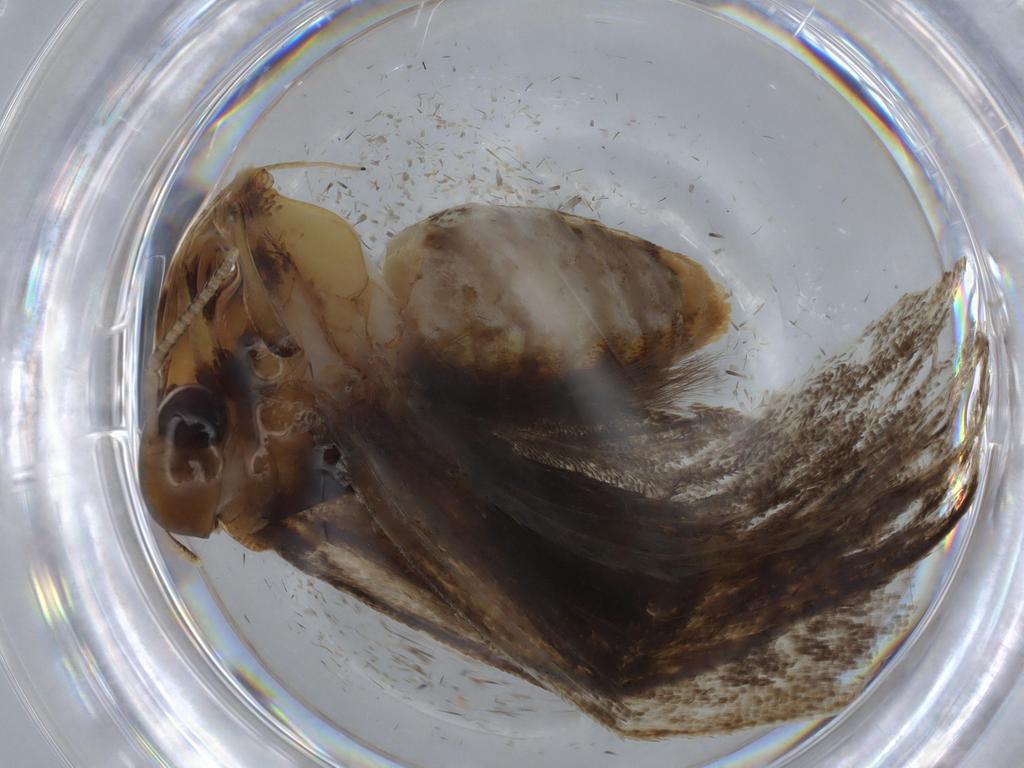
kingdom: Animalia
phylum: Arthropoda
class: Insecta
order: Lepidoptera
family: Gelechiidae
